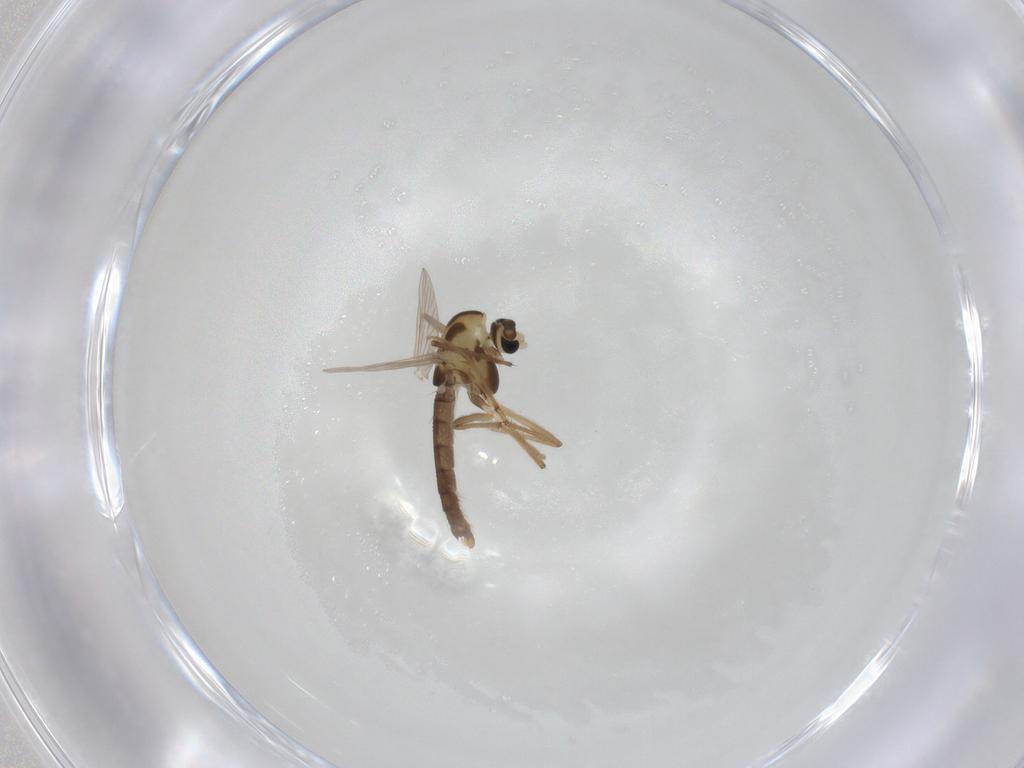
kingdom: Animalia
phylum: Arthropoda
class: Insecta
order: Diptera
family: Chironomidae
